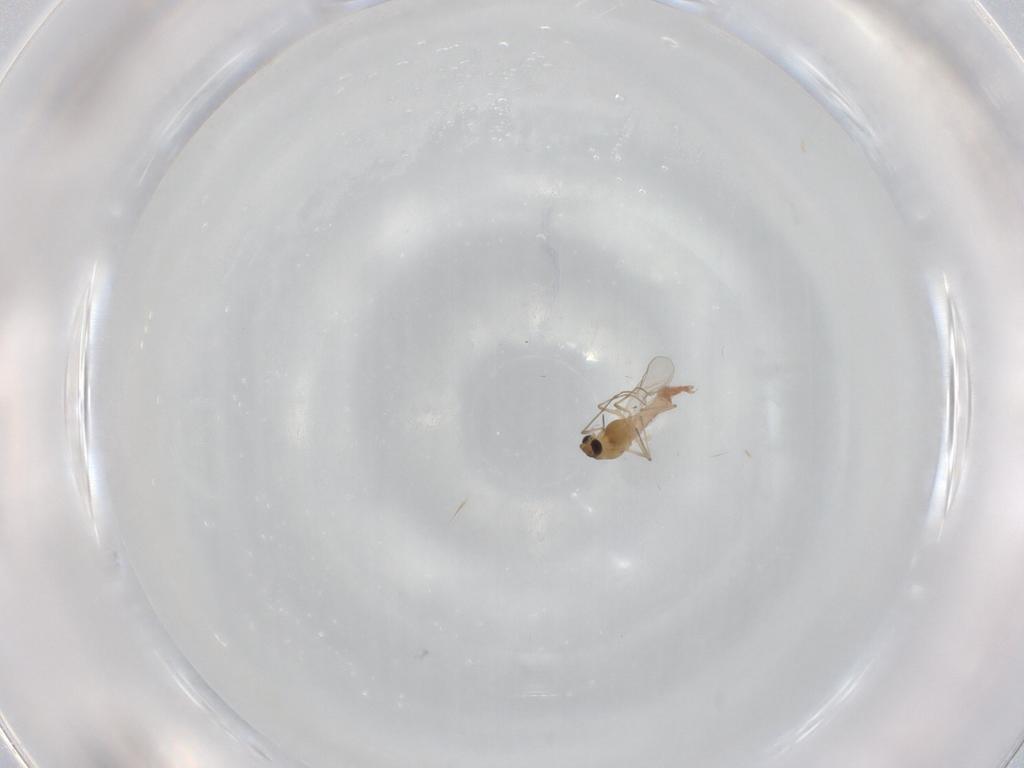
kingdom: Animalia
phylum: Arthropoda
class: Insecta
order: Diptera
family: Chironomidae
